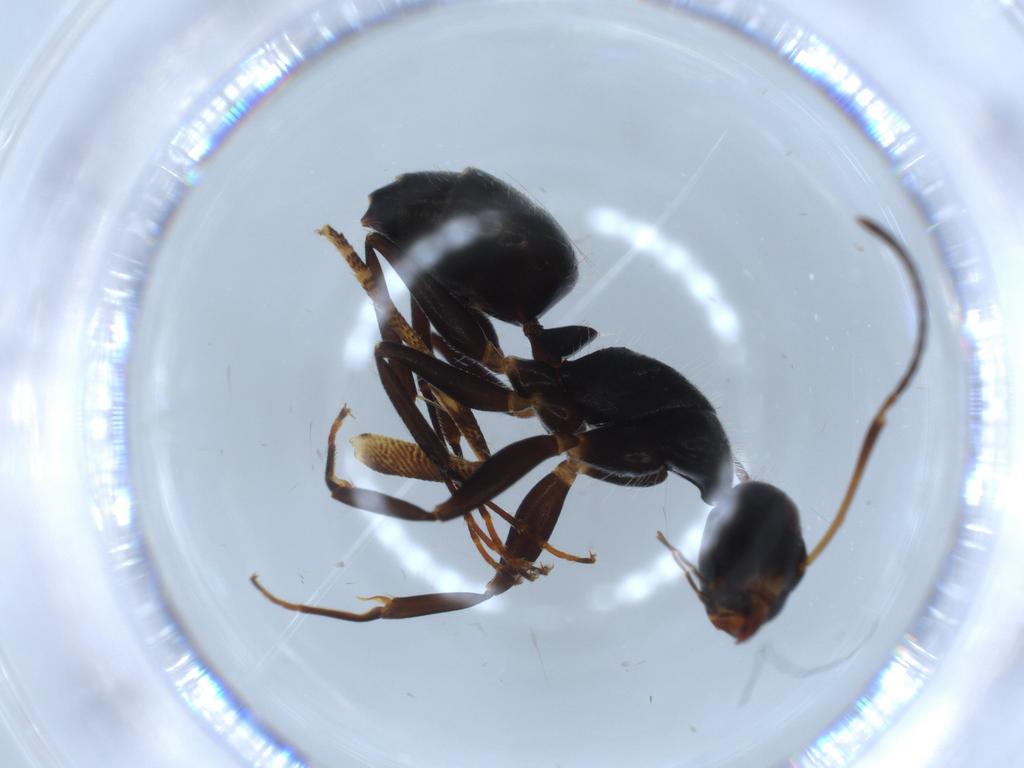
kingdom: Animalia
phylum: Arthropoda
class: Insecta
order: Hymenoptera
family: Formicidae
